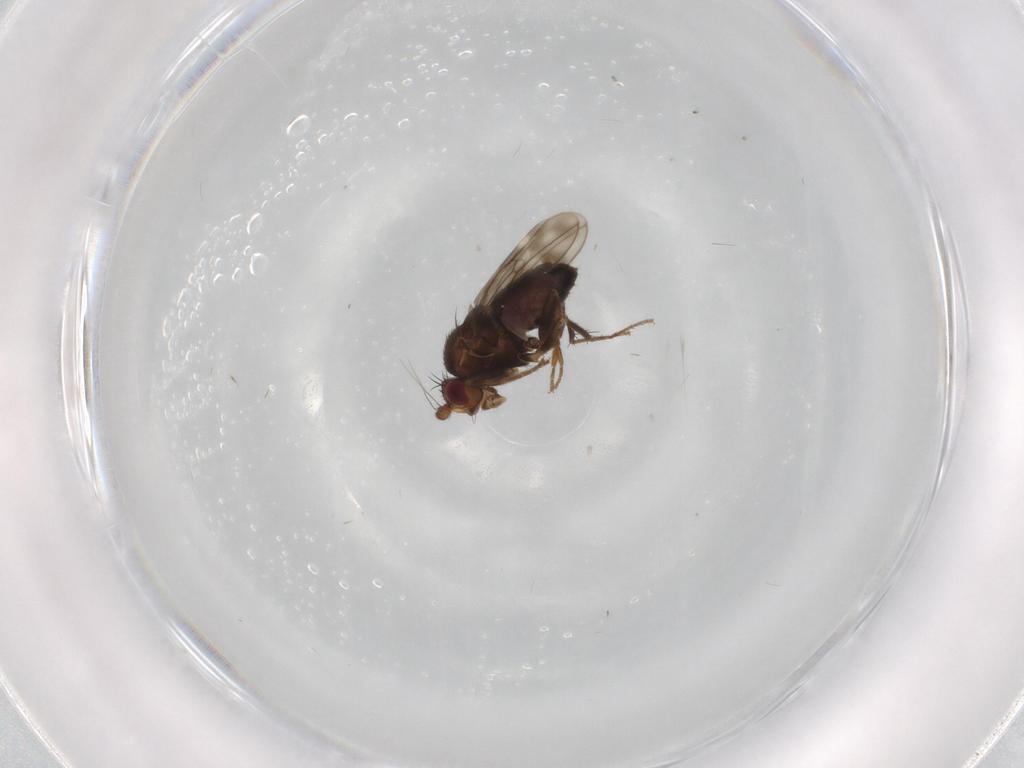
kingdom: Animalia
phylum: Arthropoda
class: Insecta
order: Diptera
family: Sphaeroceridae
